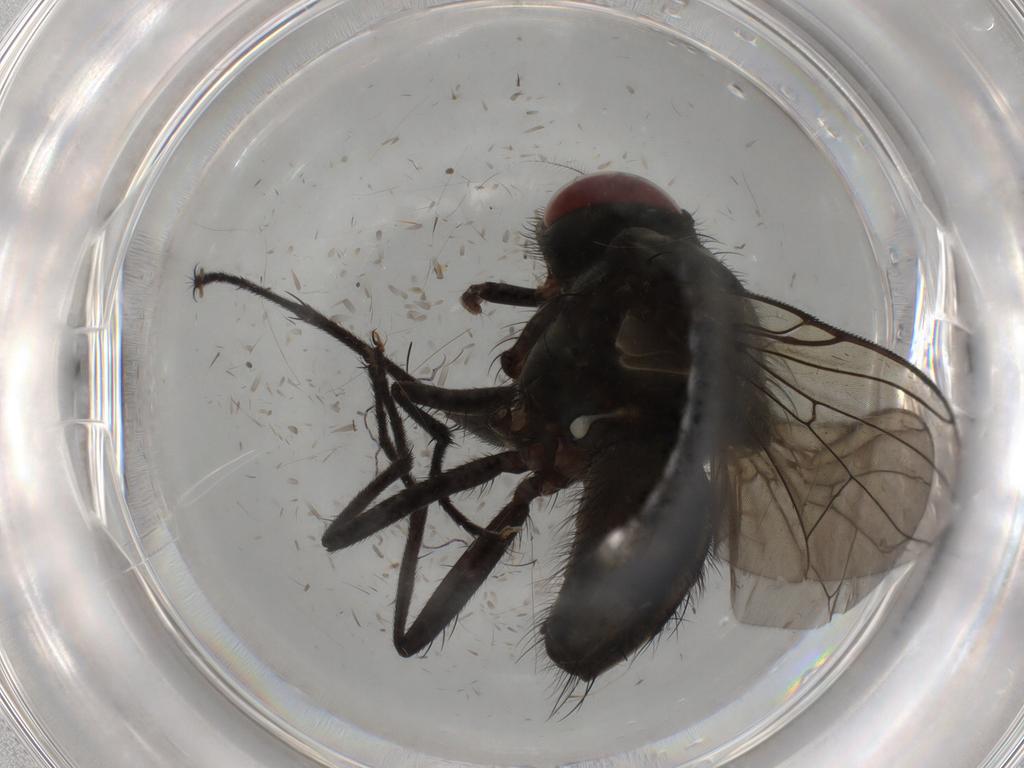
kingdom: Animalia
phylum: Arthropoda
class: Insecta
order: Diptera
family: Muscidae
